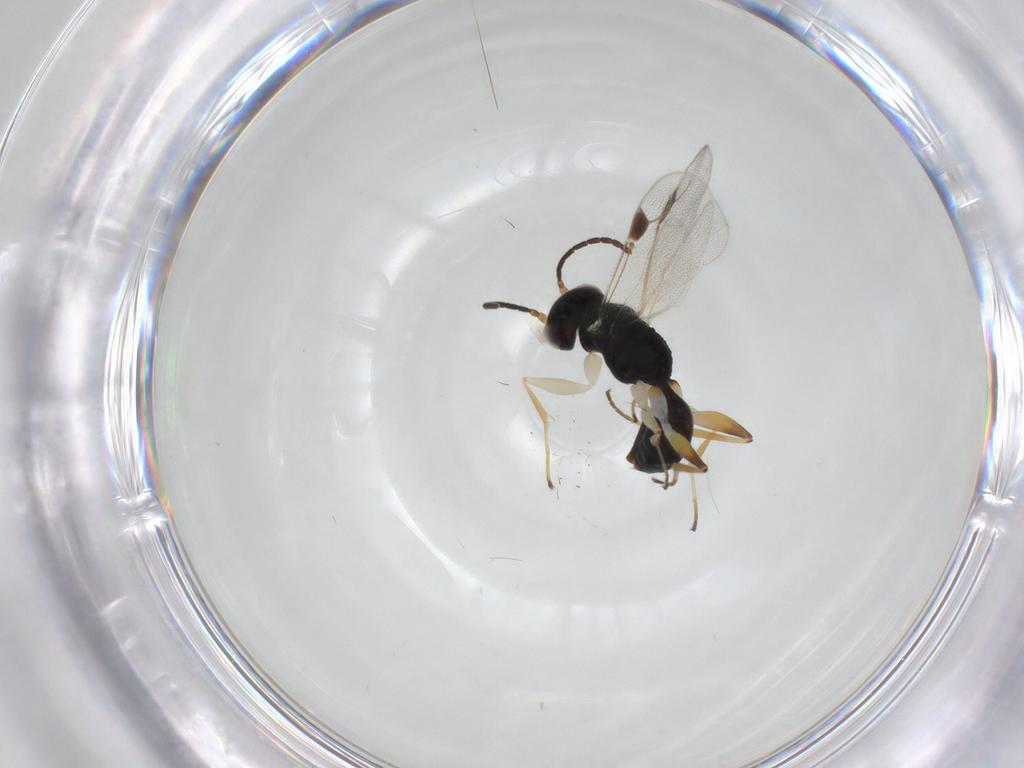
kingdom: Animalia
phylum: Arthropoda
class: Insecta
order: Hymenoptera
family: Dryinidae
